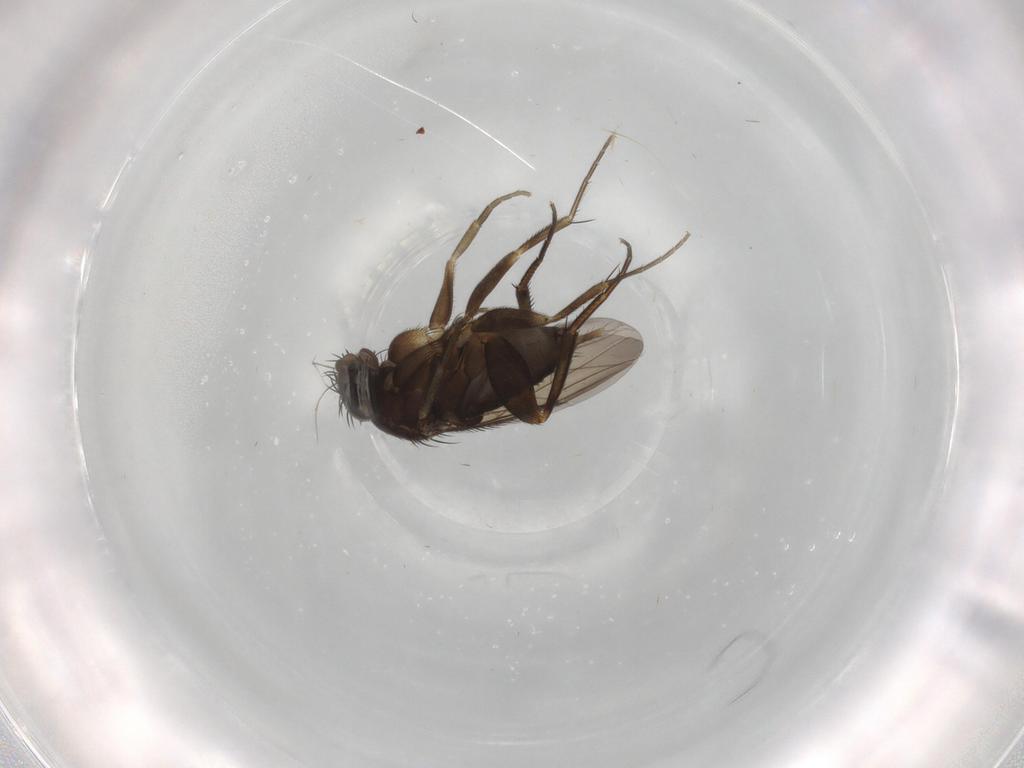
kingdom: Animalia
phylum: Arthropoda
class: Insecta
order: Diptera
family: Phoridae
